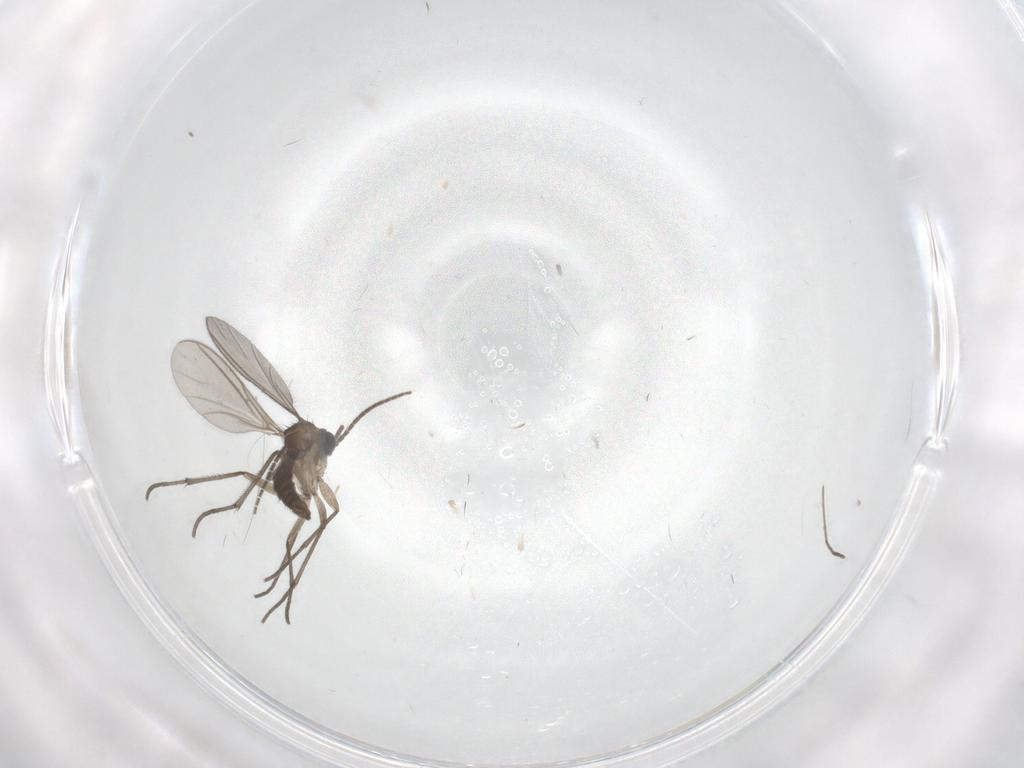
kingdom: Animalia
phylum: Arthropoda
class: Insecta
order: Diptera
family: Sciaridae
